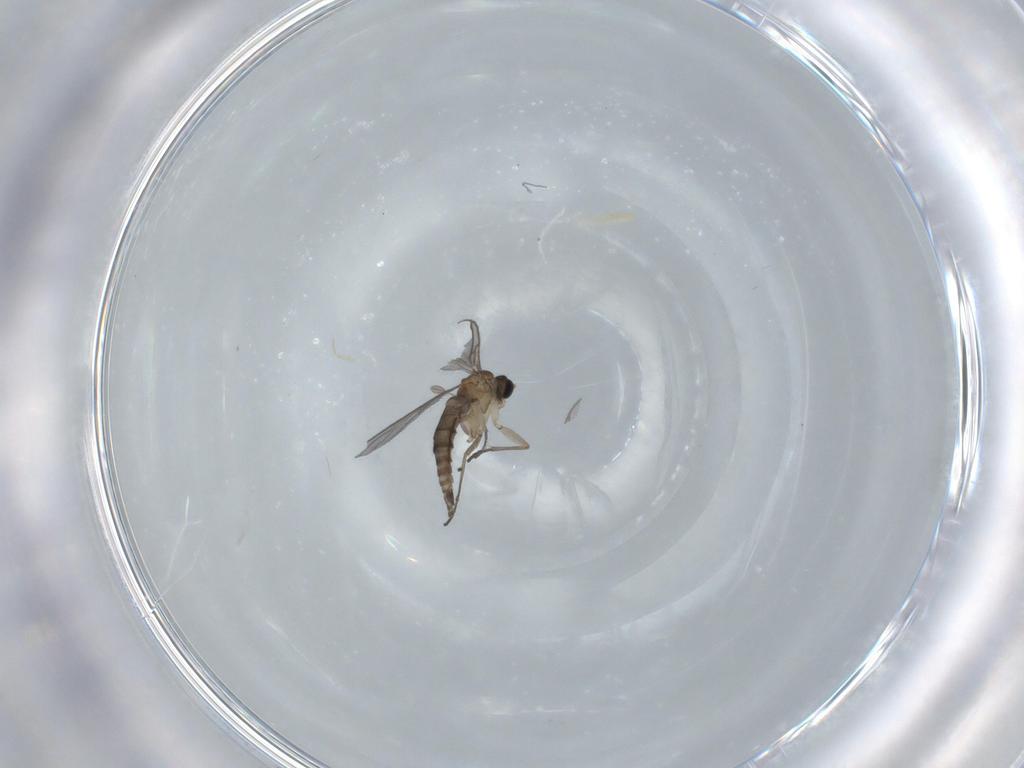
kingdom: Animalia
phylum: Arthropoda
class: Insecta
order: Diptera
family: Sciaridae
